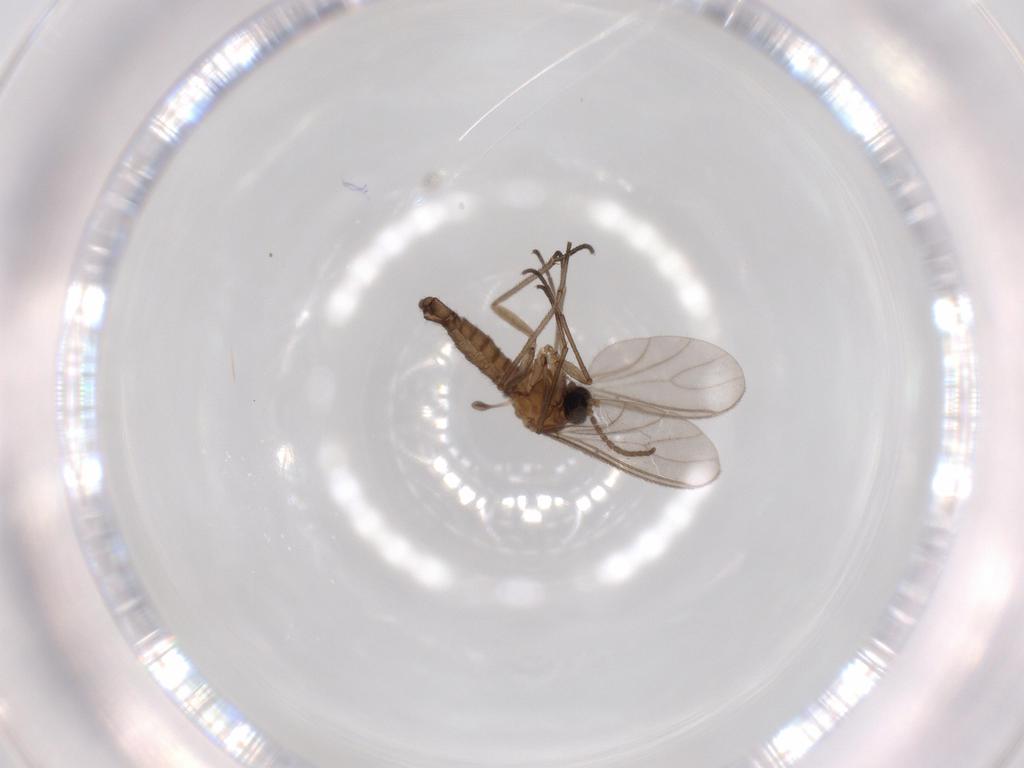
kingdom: Animalia
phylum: Arthropoda
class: Insecta
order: Diptera
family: Sciaridae
